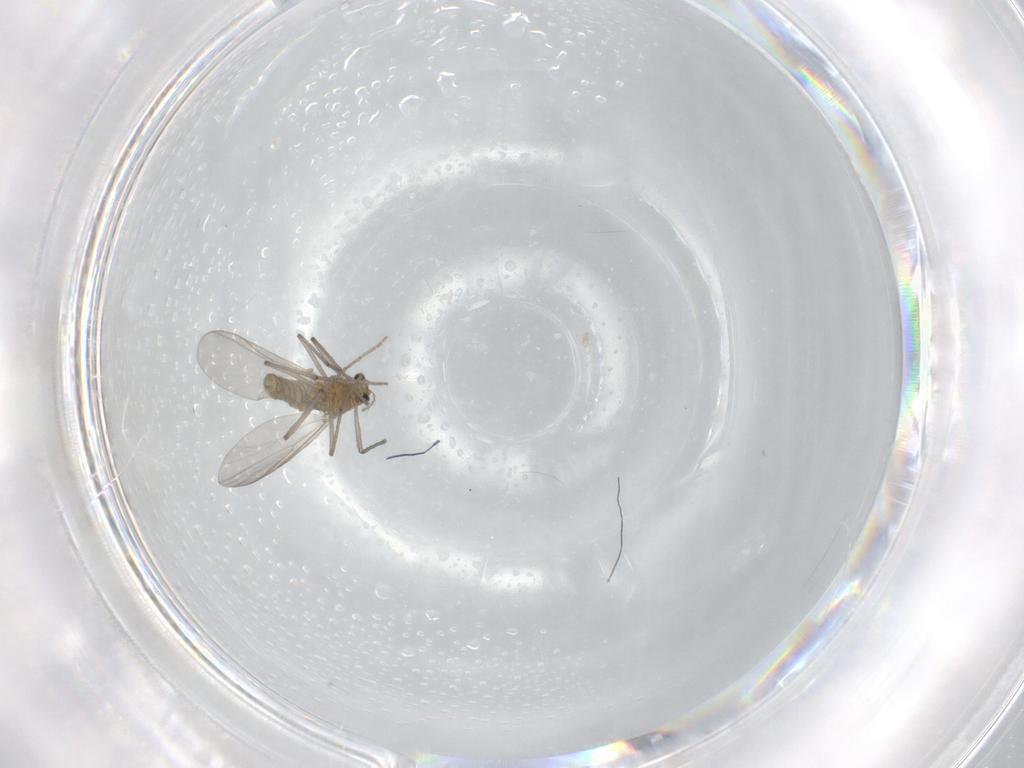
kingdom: Animalia
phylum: Arthropoda
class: Insecta
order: Diptera
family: Chironomidae
